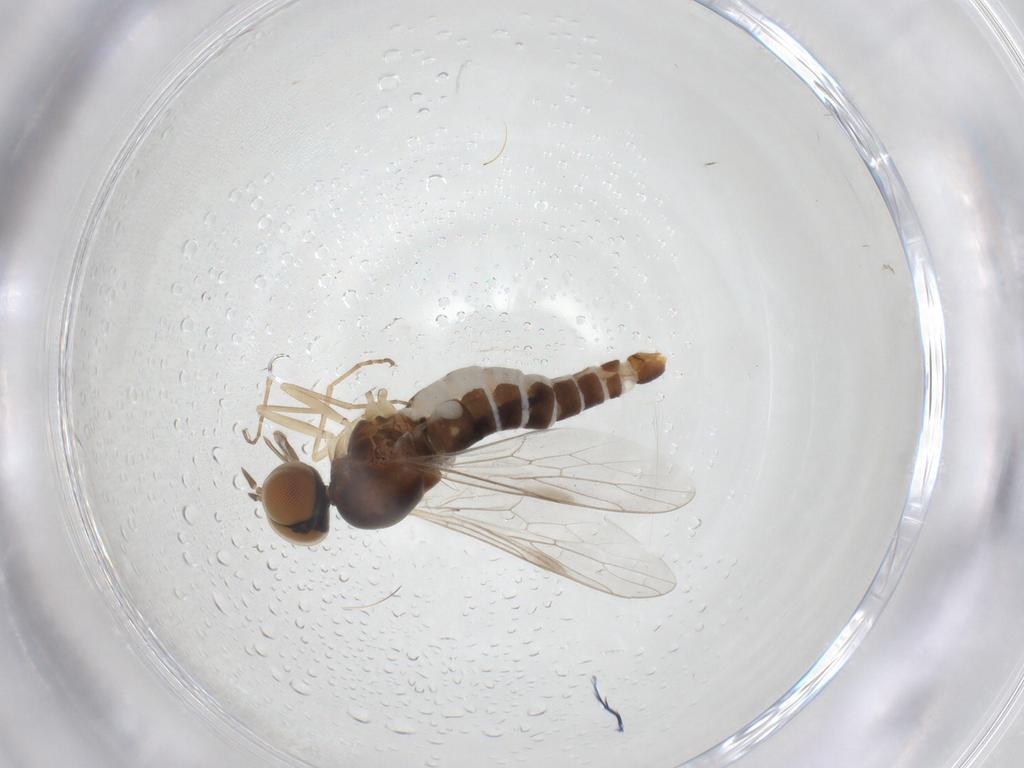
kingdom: Animalia
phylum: Arthropoda
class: Insecta
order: Diptera
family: Scenopinidae
